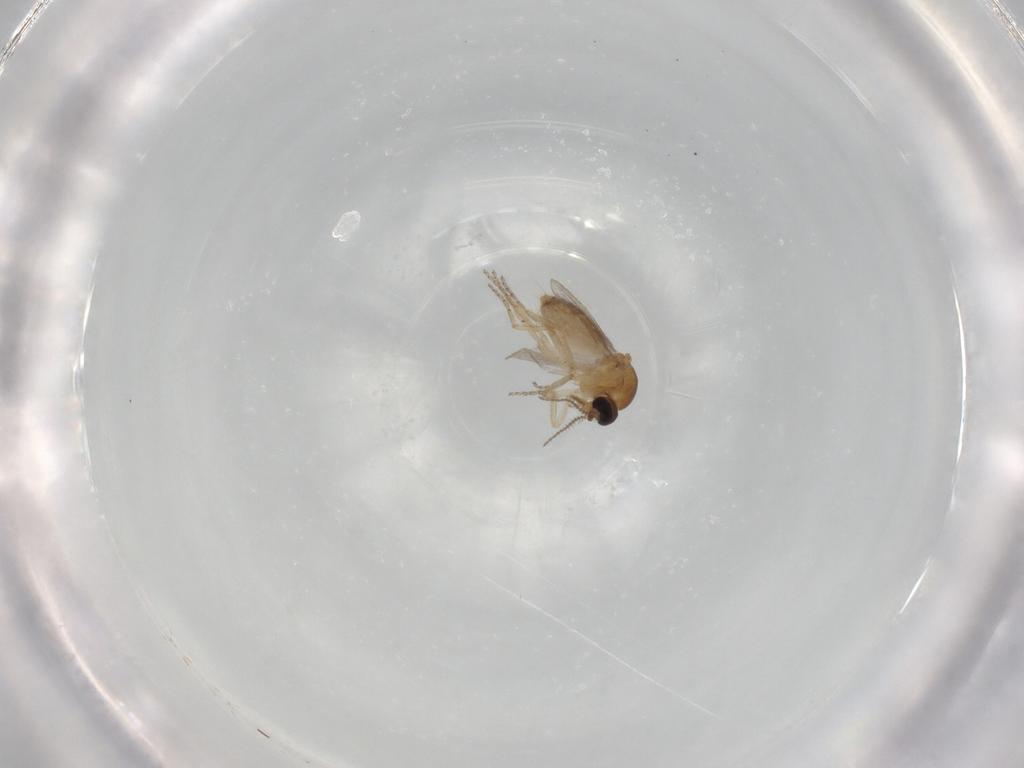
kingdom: Animalia
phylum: Arthropoda
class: Insecta
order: Diptera
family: Ceratopogonidae
